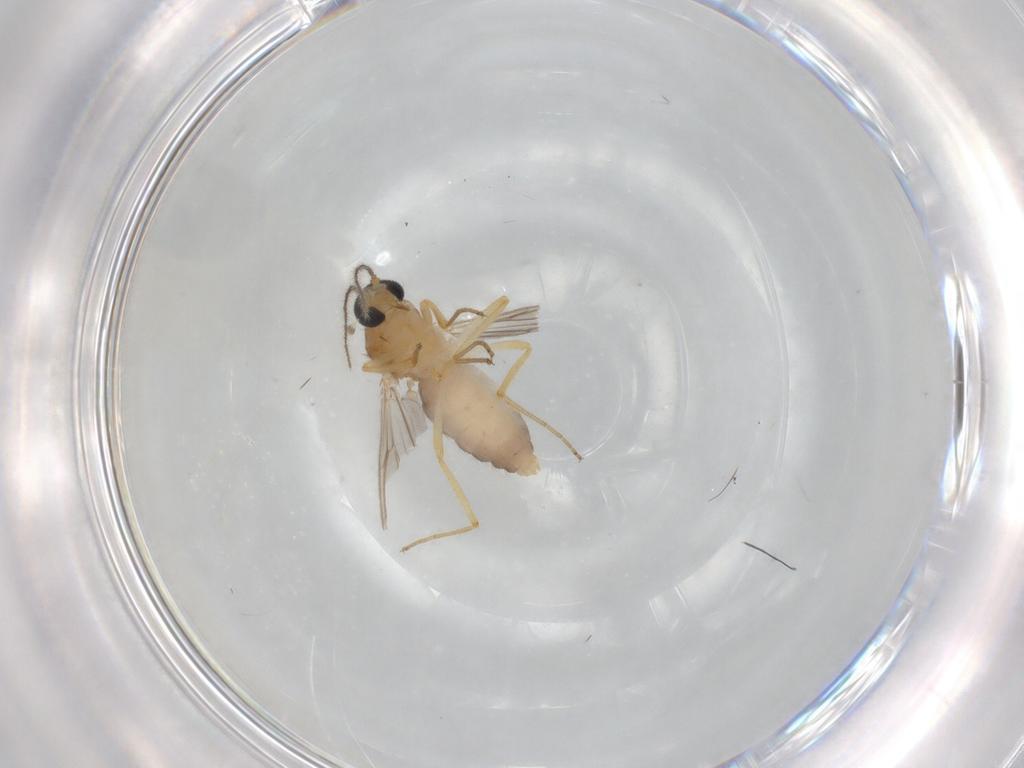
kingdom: Animalia
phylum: Arthropoda
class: Insecta
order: Diptera
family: Ceratopogonidae
